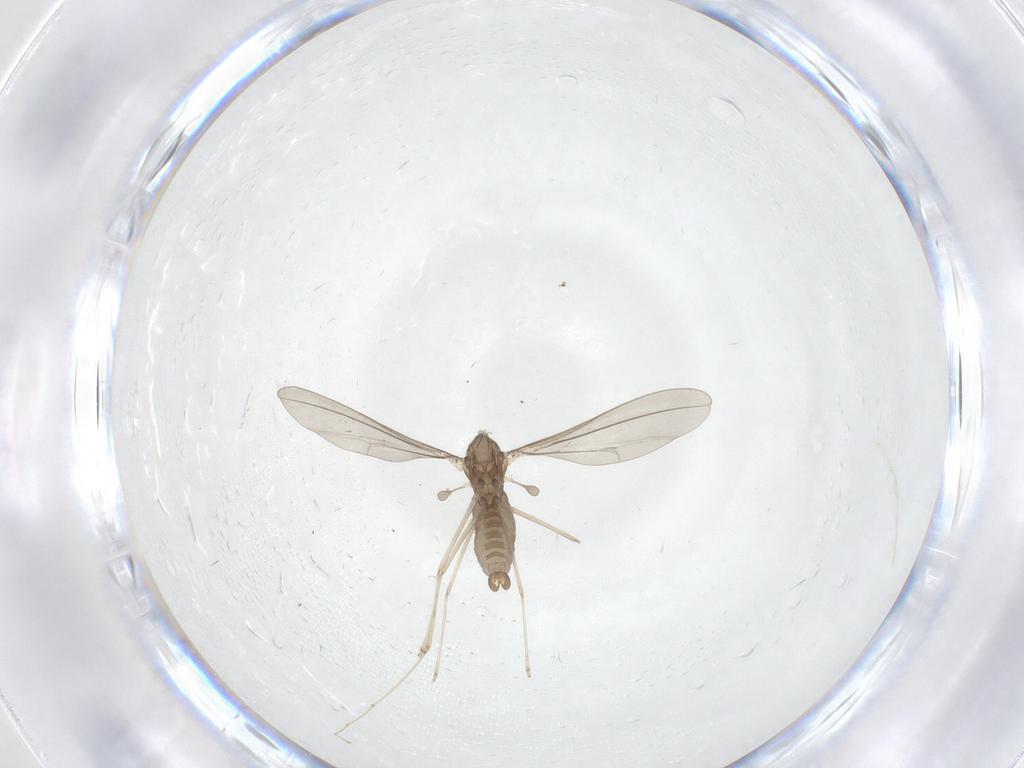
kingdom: Animalia
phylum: Arthropoda
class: Insecta
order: Diptera
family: Cecidomyiidae
